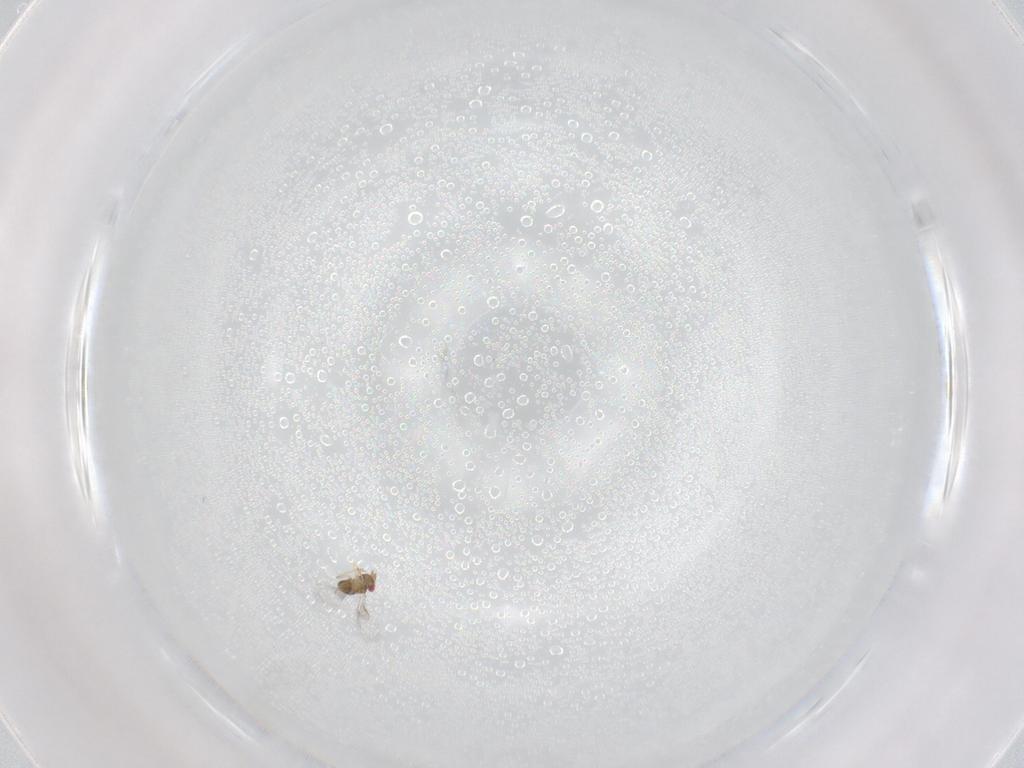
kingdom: Animalia
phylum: Arthropoda
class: Insecta
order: Hymenoptera
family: Trichogrammatidae
